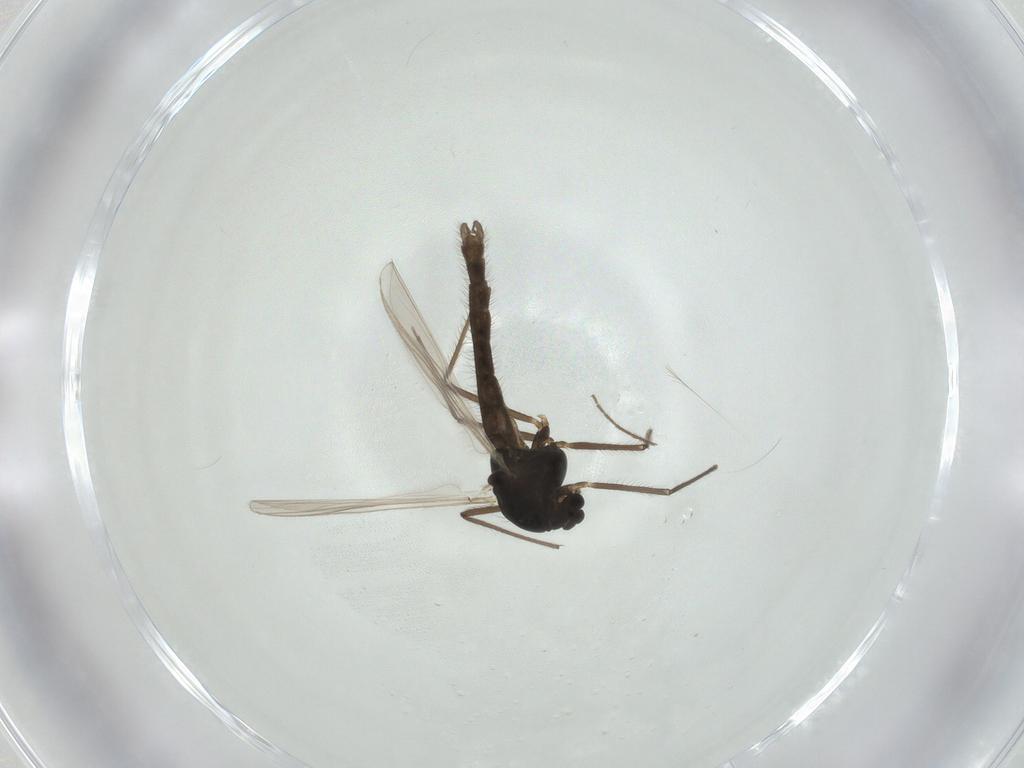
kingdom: Animalia
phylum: Arthropoda
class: Insecta
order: Diptera
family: Chironomidae
